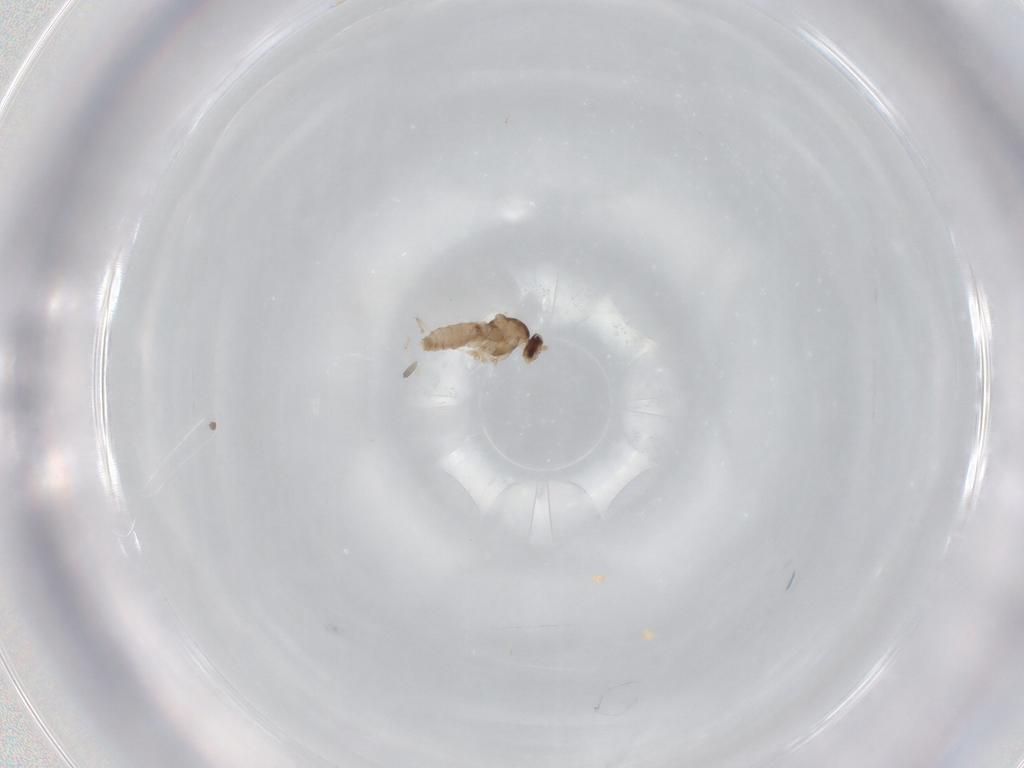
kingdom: Animalia
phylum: Arthropoda
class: Insecta
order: Diptera
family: Cecidomyiidae
